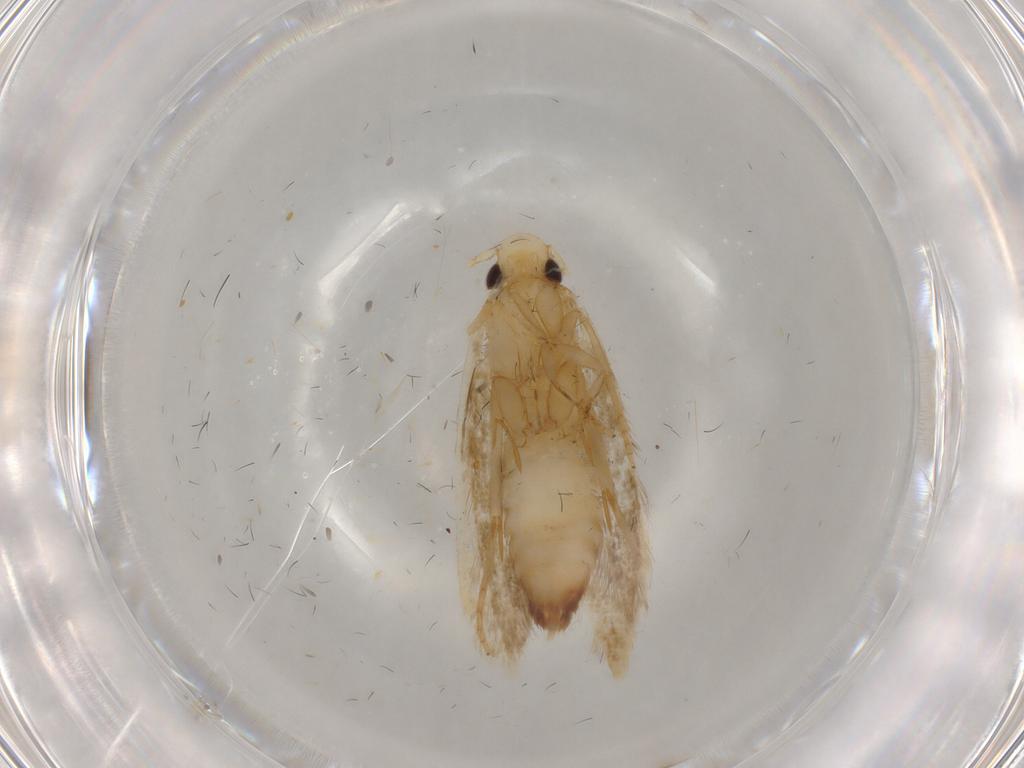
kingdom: Animalia
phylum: Arthropoda
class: Insecta
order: Lepidoptera
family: Tineidae
